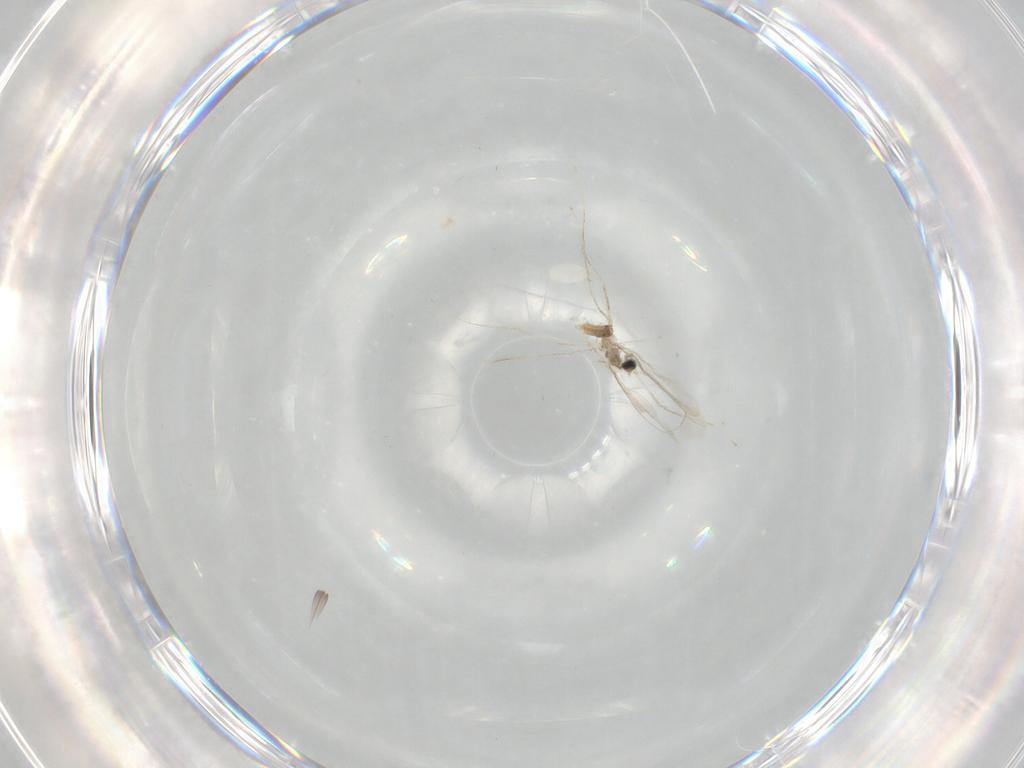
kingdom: Animalia
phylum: Arthropoda
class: Insecta
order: Diptera
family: Cecidomyiidae
